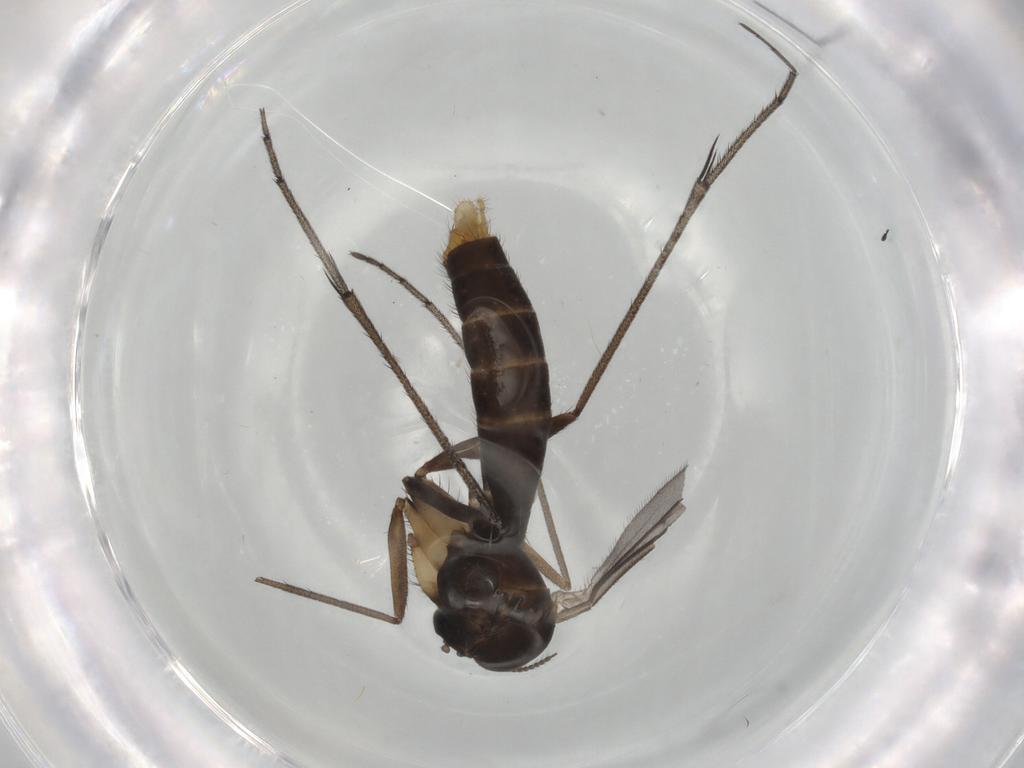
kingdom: Animalia
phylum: Arthropoda
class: Insecta
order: Diptera
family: Ditomyiidae
